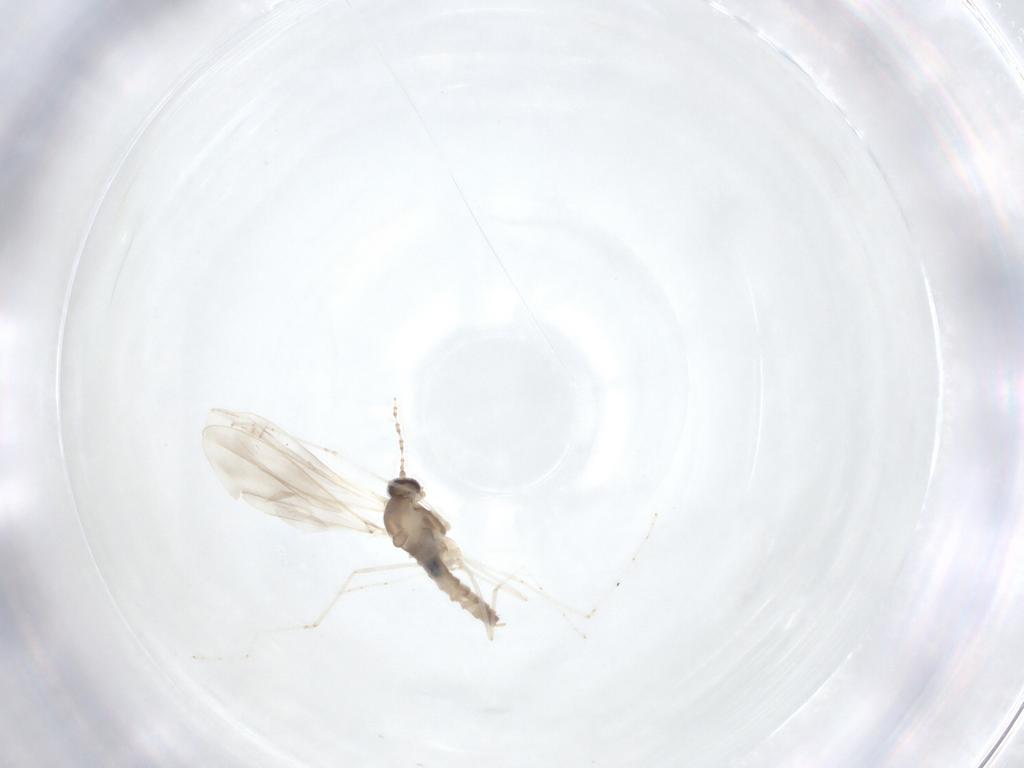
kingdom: Animalia
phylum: Arthropoda
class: Insecta
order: Diptera
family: Cecidomyiidae
